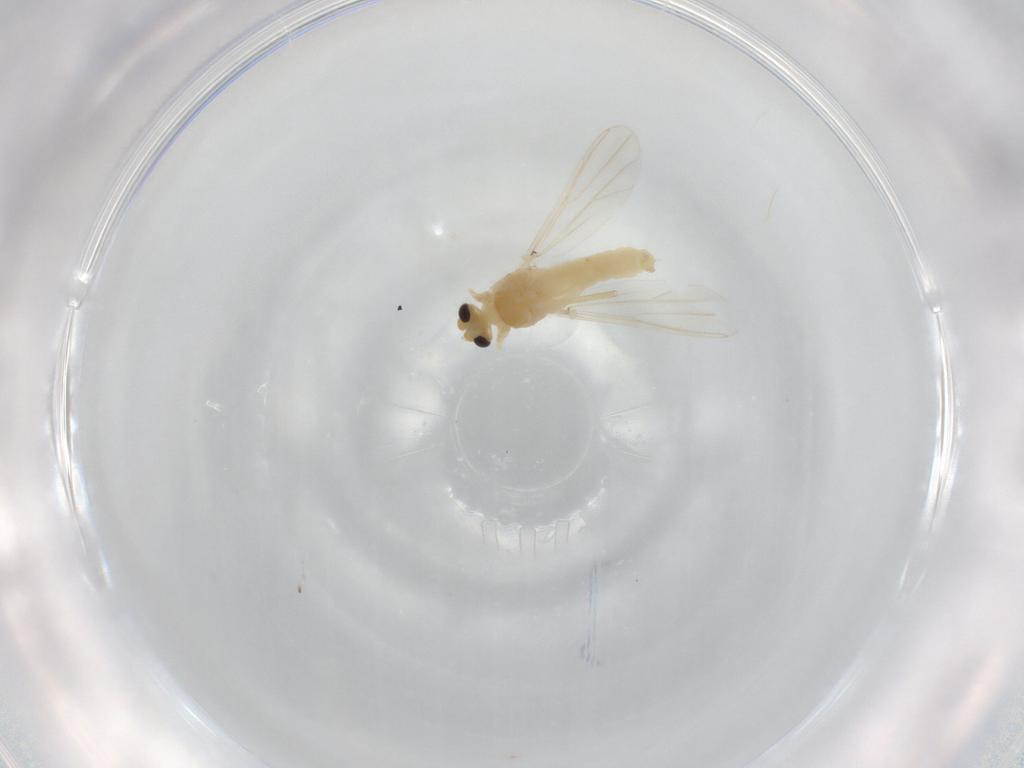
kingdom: Animalia
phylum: Arthropoda
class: Insecta
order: Diptera
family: Chironomidae
